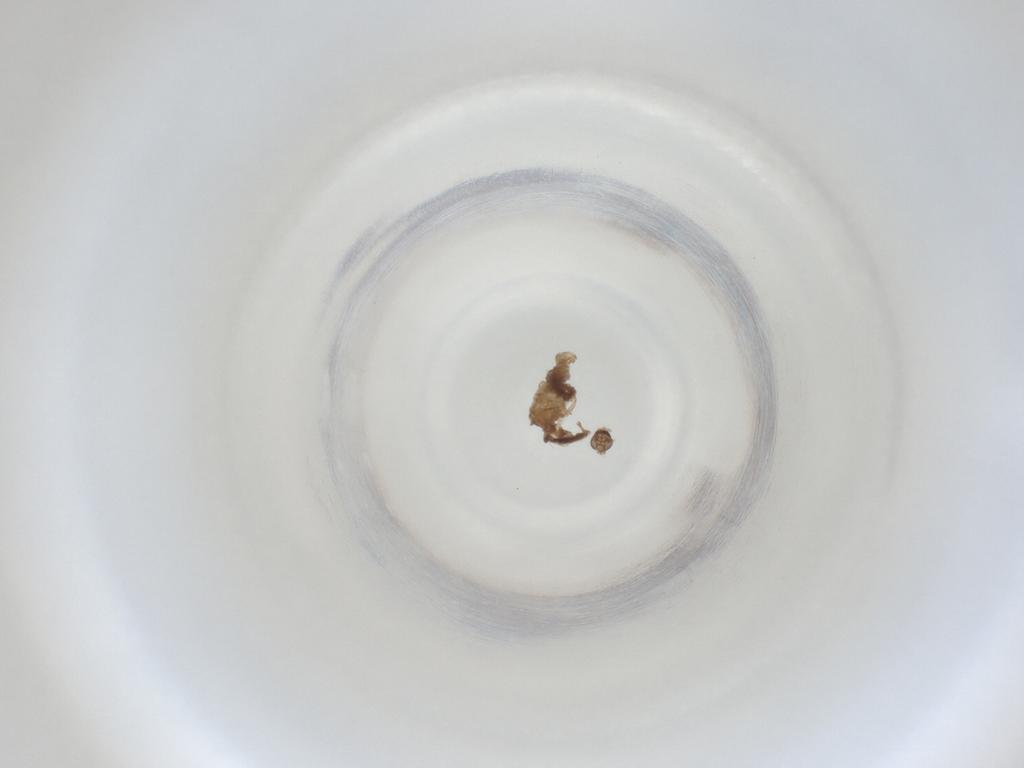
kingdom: Animalia
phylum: Arthropoda
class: Insecta
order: Diptera
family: Cecidomyiidae
